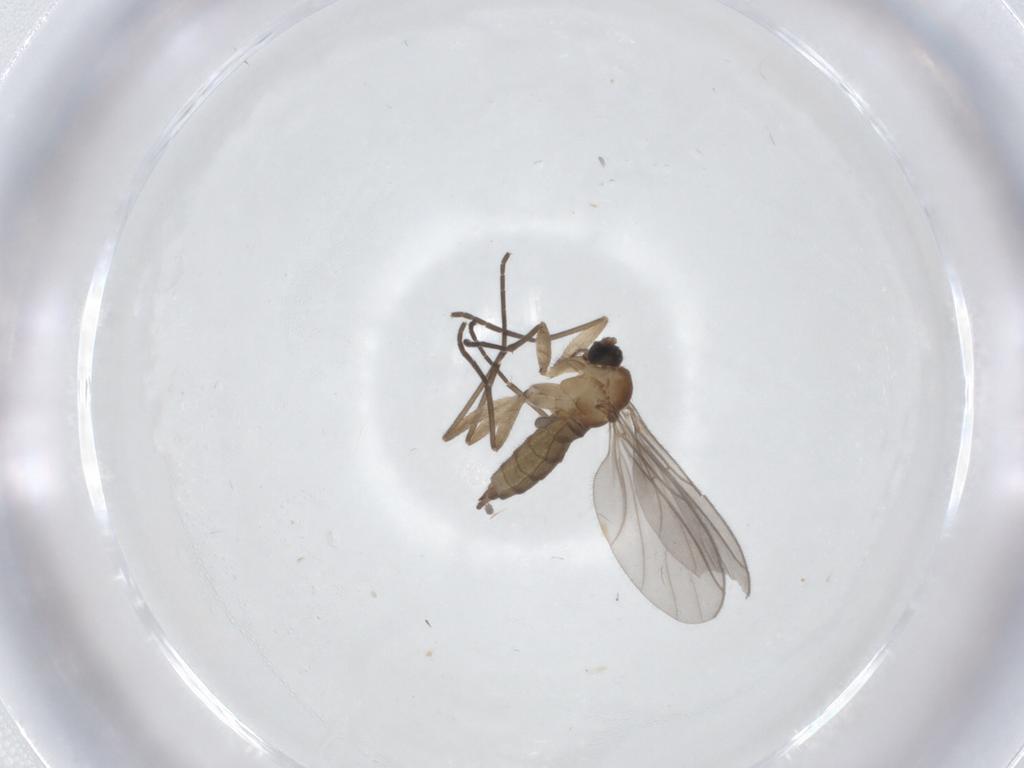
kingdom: Animalia
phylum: Arthropoda
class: Insecta
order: Diptera
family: Sciaridae
